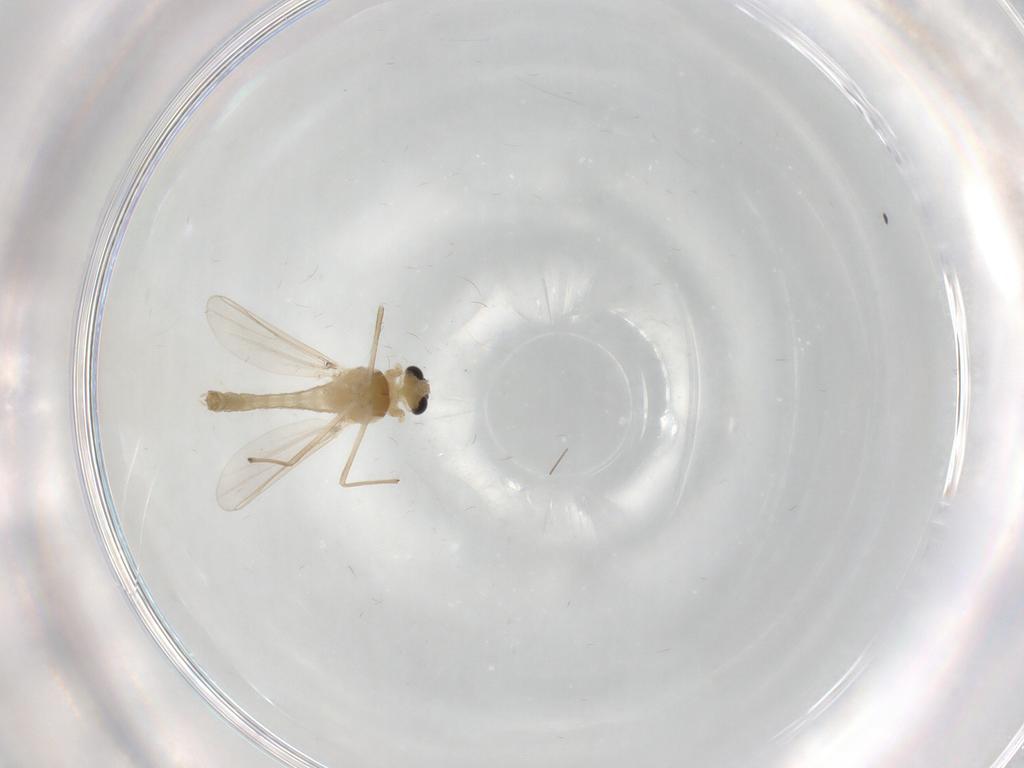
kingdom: Animalia
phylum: Arthropoda
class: Insecta
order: Diptera
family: Chironomidae
